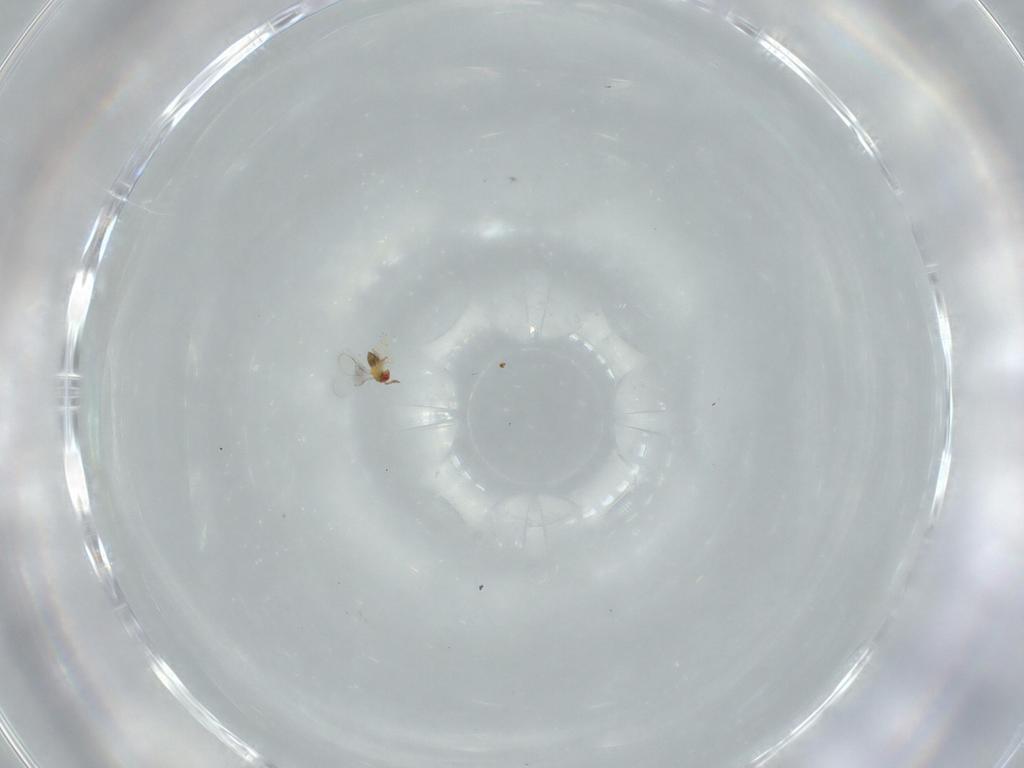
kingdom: Animalia
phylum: Arthropoda
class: Insecta
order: Hymenoptera
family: Trichogrammatidae
